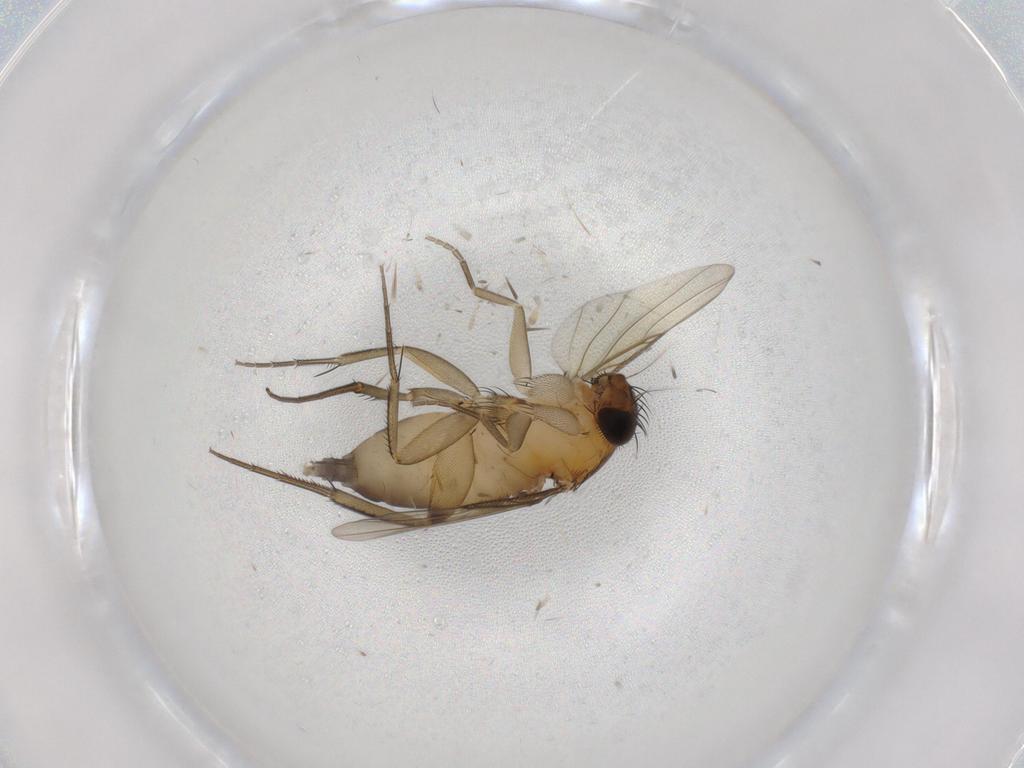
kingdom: Animalia
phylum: Arthropoda
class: Insecta
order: Diptera
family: Phoridae
